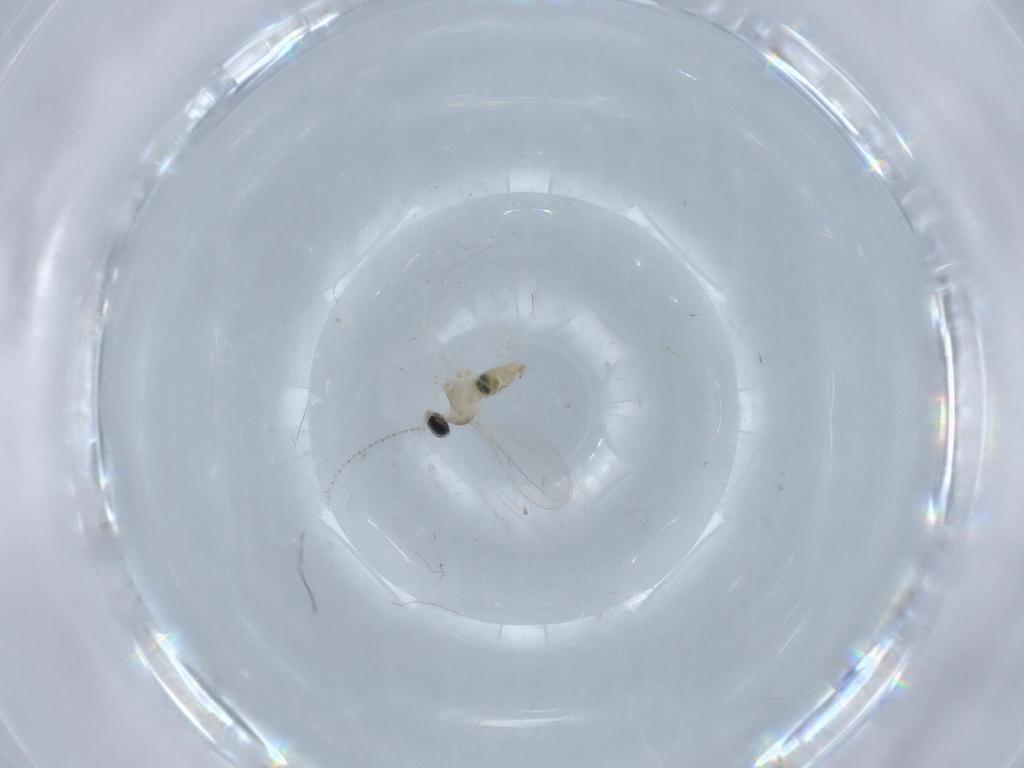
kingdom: Animalia
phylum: Arthropoda
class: Insecta
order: Diptera
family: Cecidomyiidae
